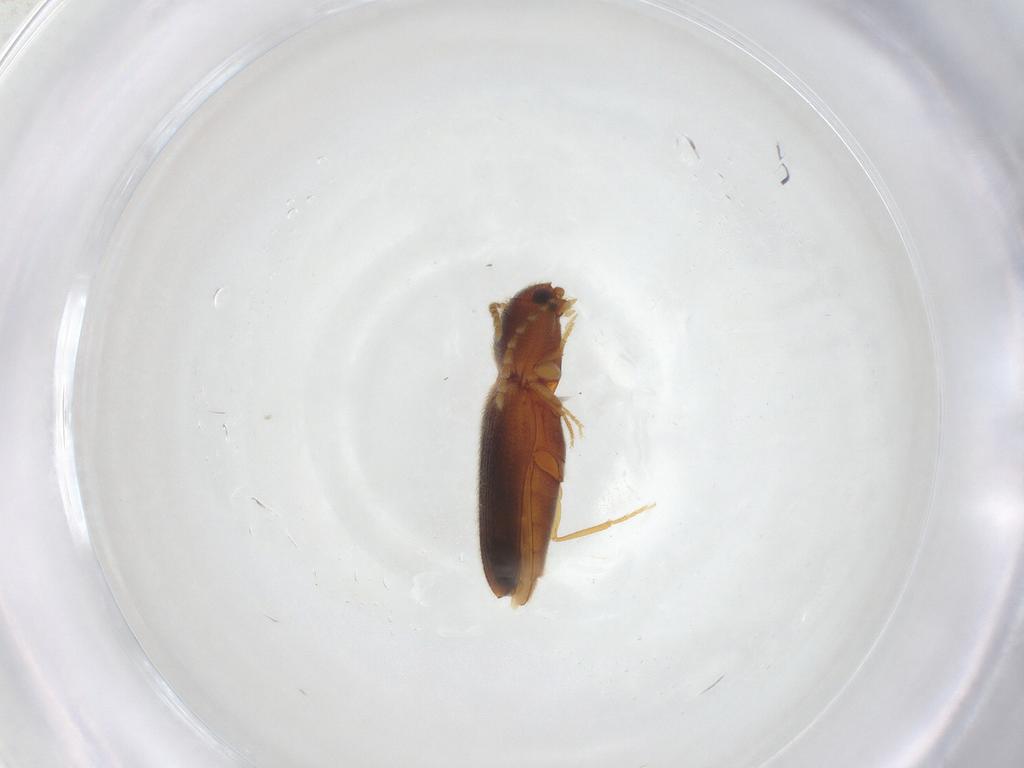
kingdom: Animalia
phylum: Arthropoda
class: Insecta
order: Coleoptera
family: Elateridae
